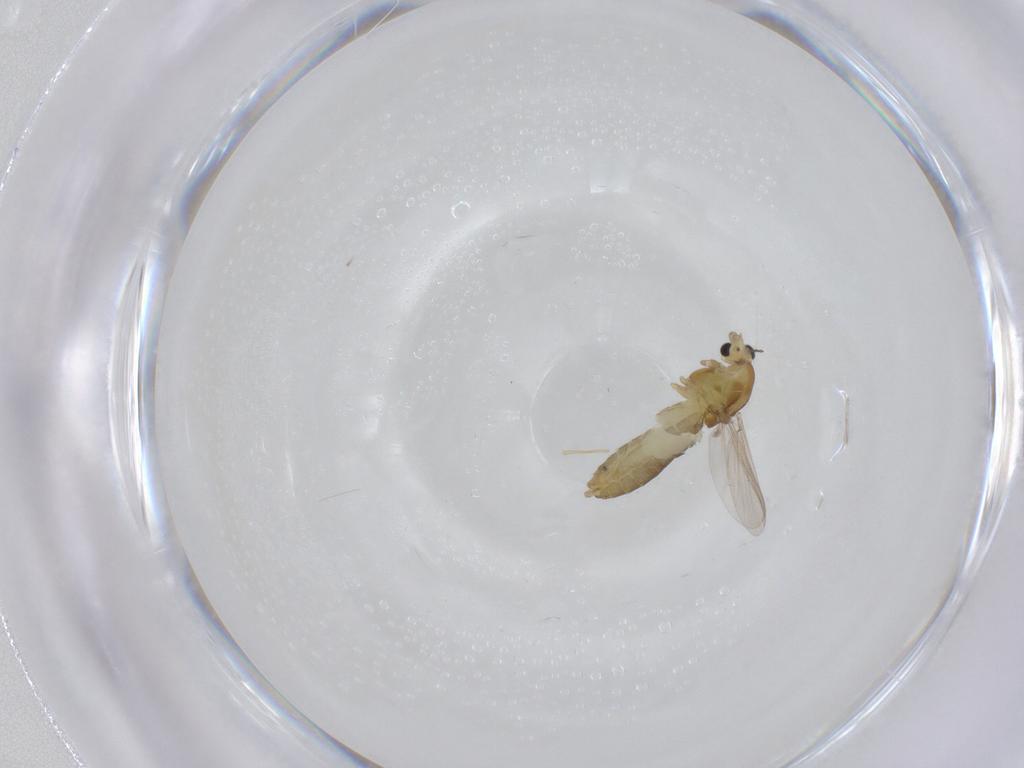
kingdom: Animalia
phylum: Arthropoda
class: Insecta
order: Diptera
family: Chironomidae
